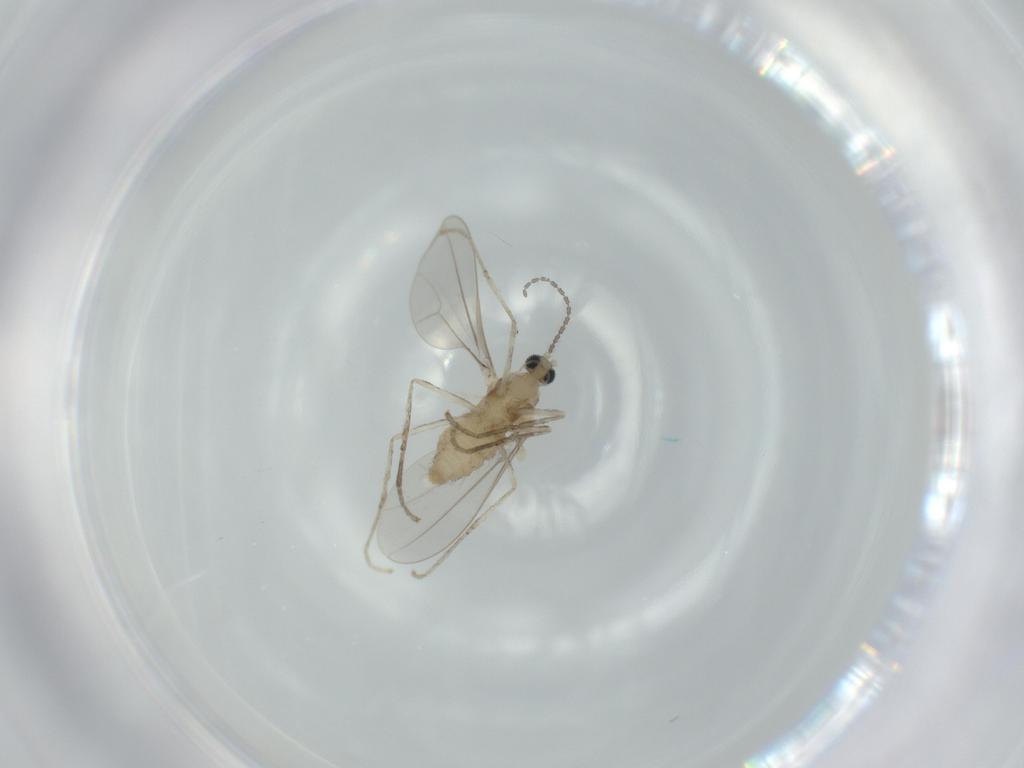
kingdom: Animalia
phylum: Arthropoda
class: Insecta
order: Diptera
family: Cecidomyiidae
